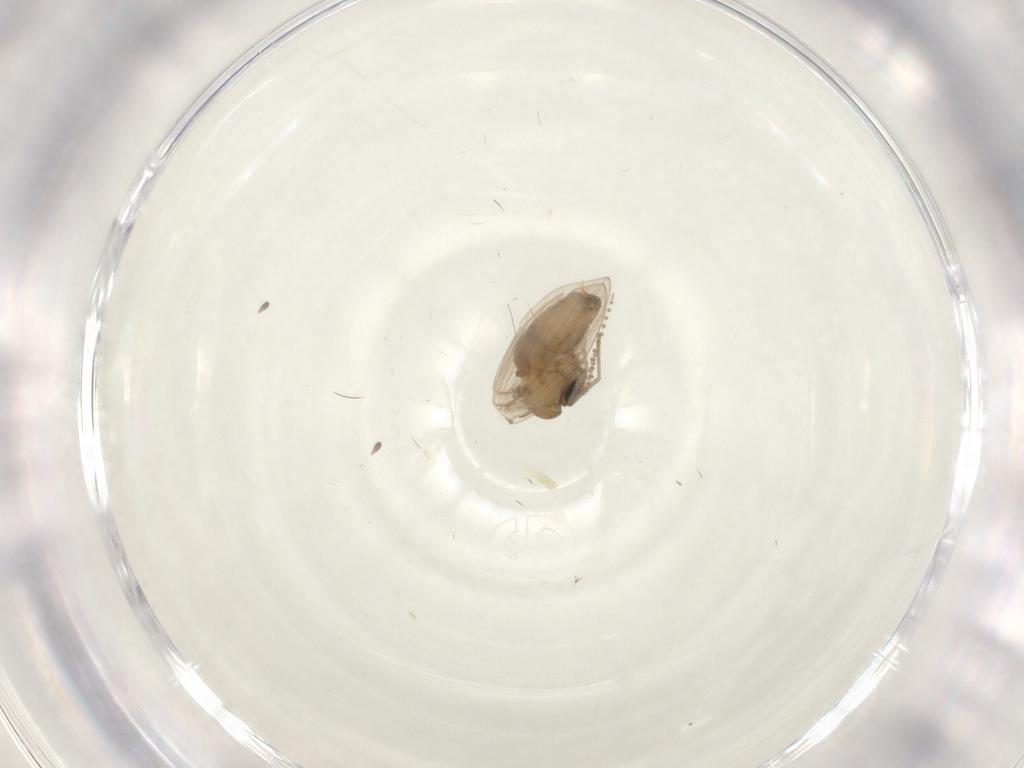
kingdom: Animalia
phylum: Arthropoda
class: Insecta
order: Diptera
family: Psychodidae
